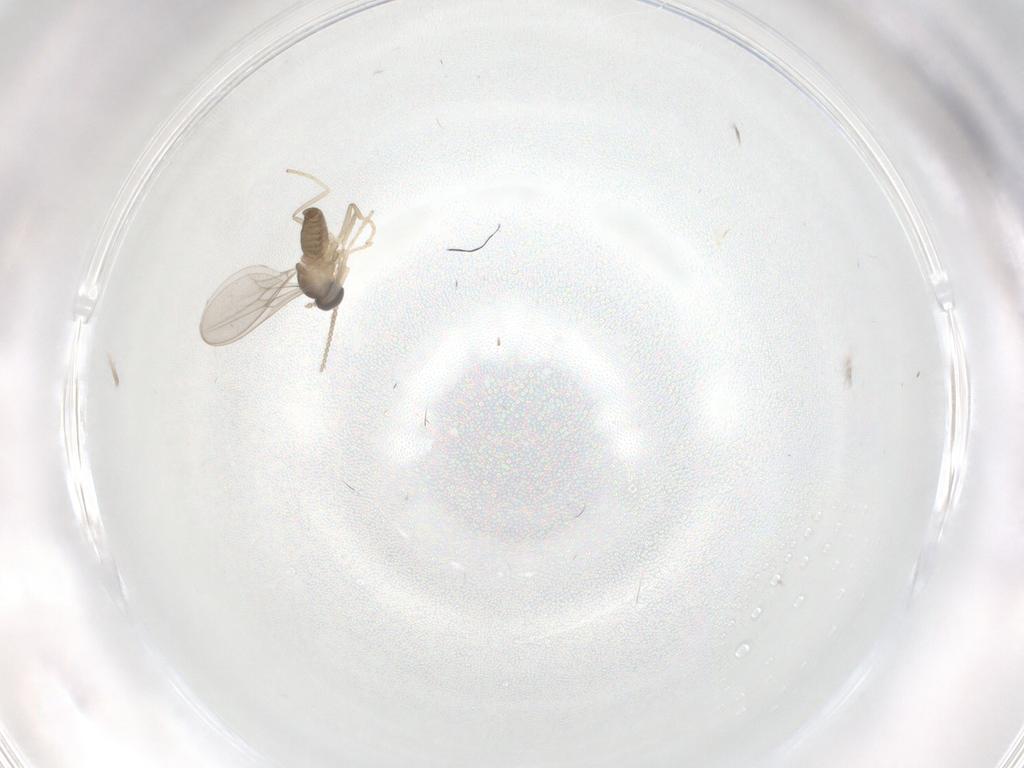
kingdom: Animalia
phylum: Arthropoda
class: Insecta
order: Diptera
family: Cecidomyiidae
